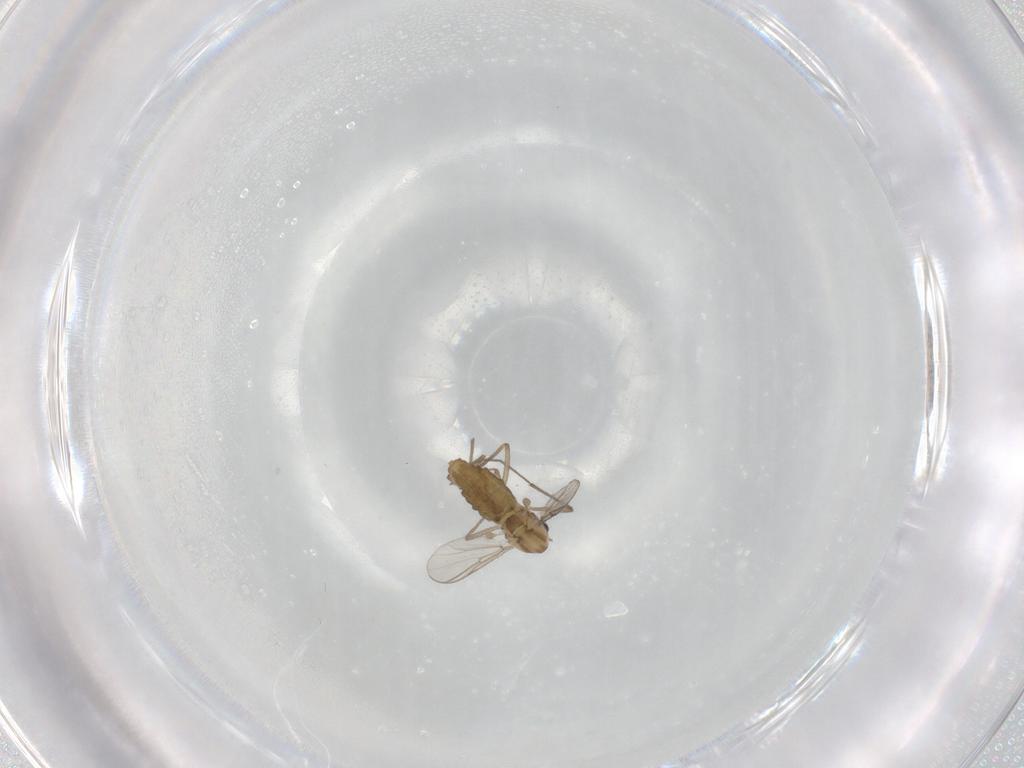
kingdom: Animalia
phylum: Arthropoda
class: Insecta
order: Diptera
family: Chironomidae
